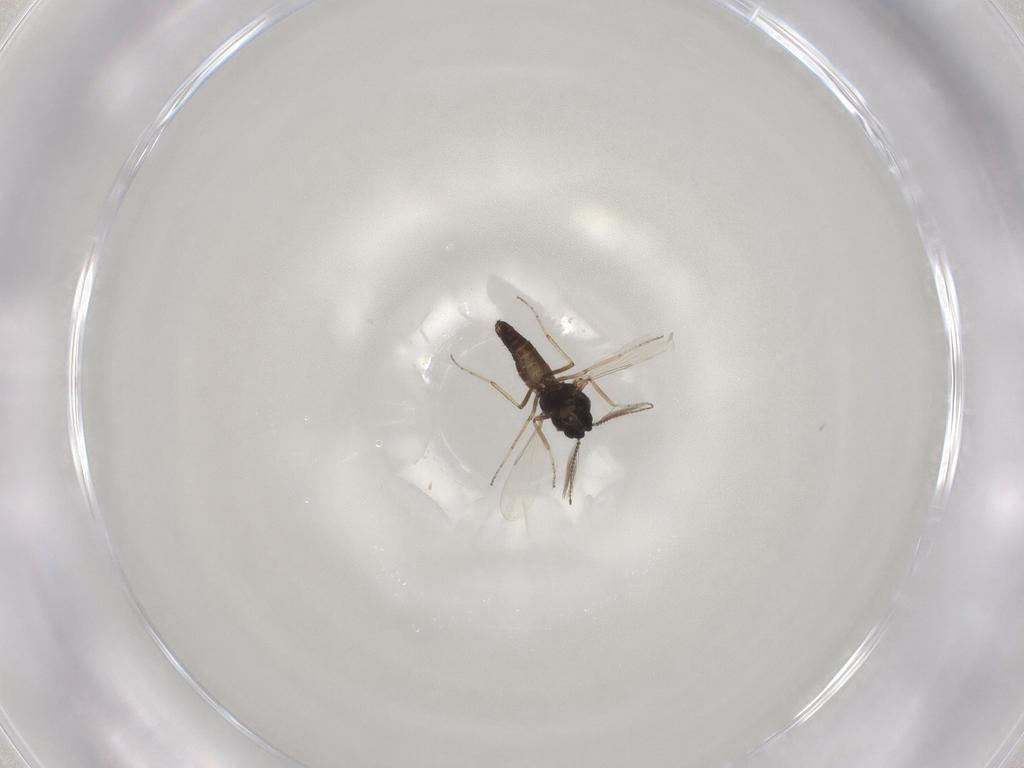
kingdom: Animalia
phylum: Arthropoda
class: Insecta
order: Diptera
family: Ceratopogonidae
